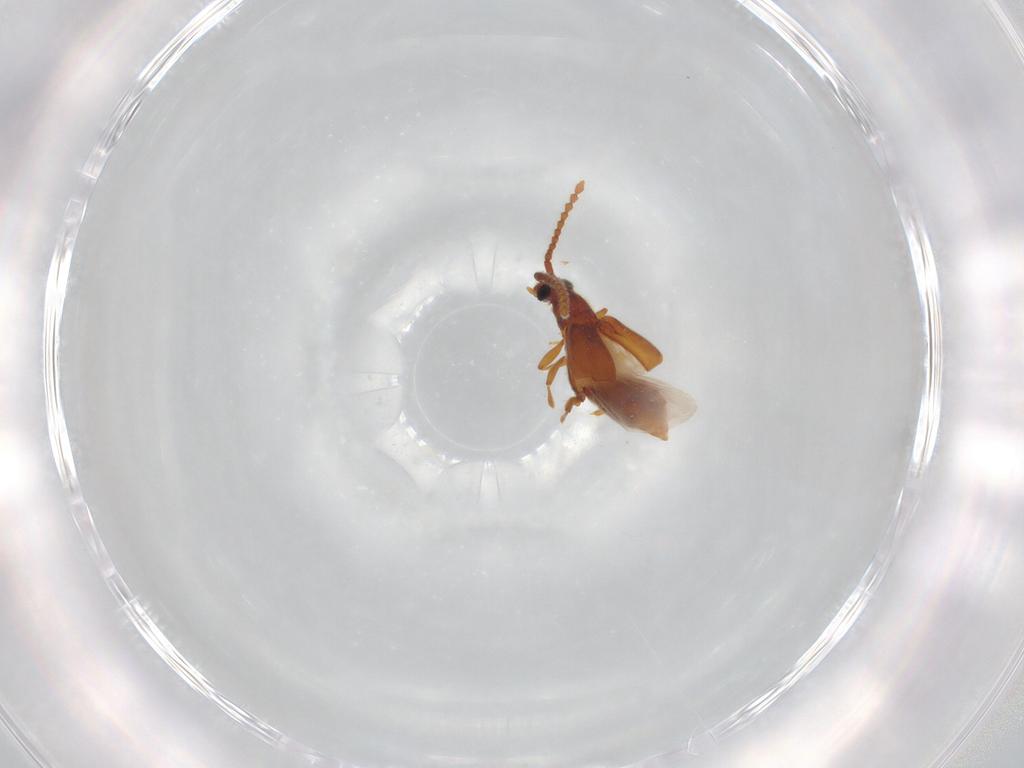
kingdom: Animalia
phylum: Arthropoda
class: Insecta
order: Coleoptera
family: Staphylinidae
